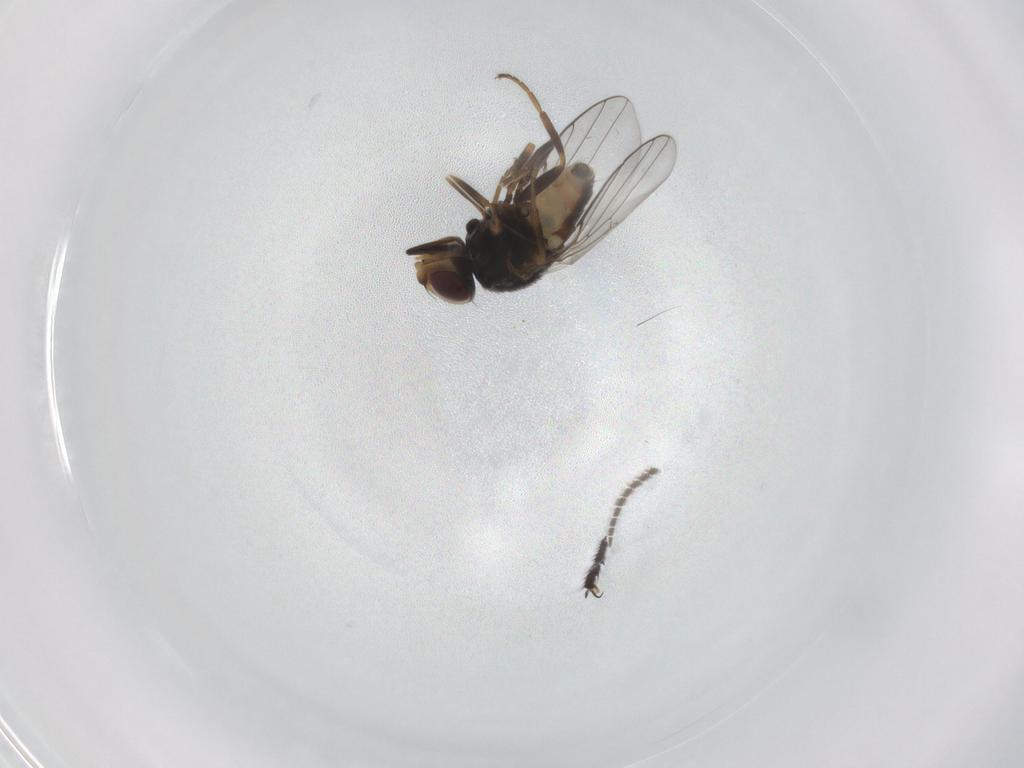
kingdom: Animalia
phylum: Arthropoda
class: Insecta
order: Diptera
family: Chloropidae
